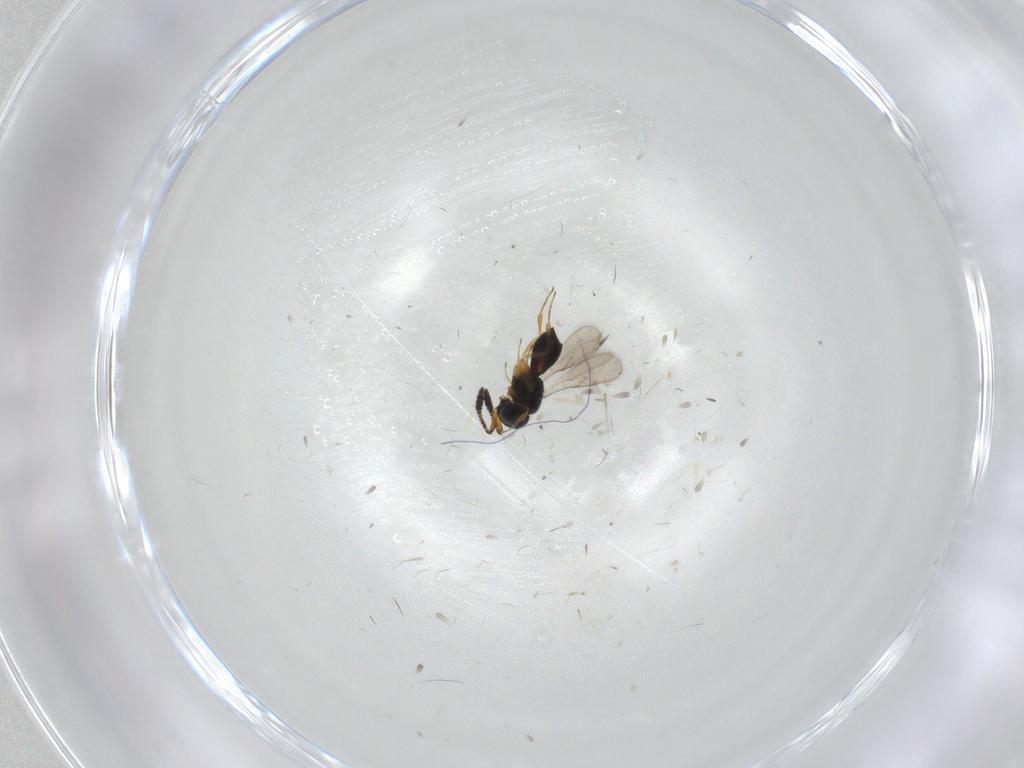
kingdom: Animalia
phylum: Arthropoda
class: Insecta
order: Hymenoptera
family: Scelionidae
